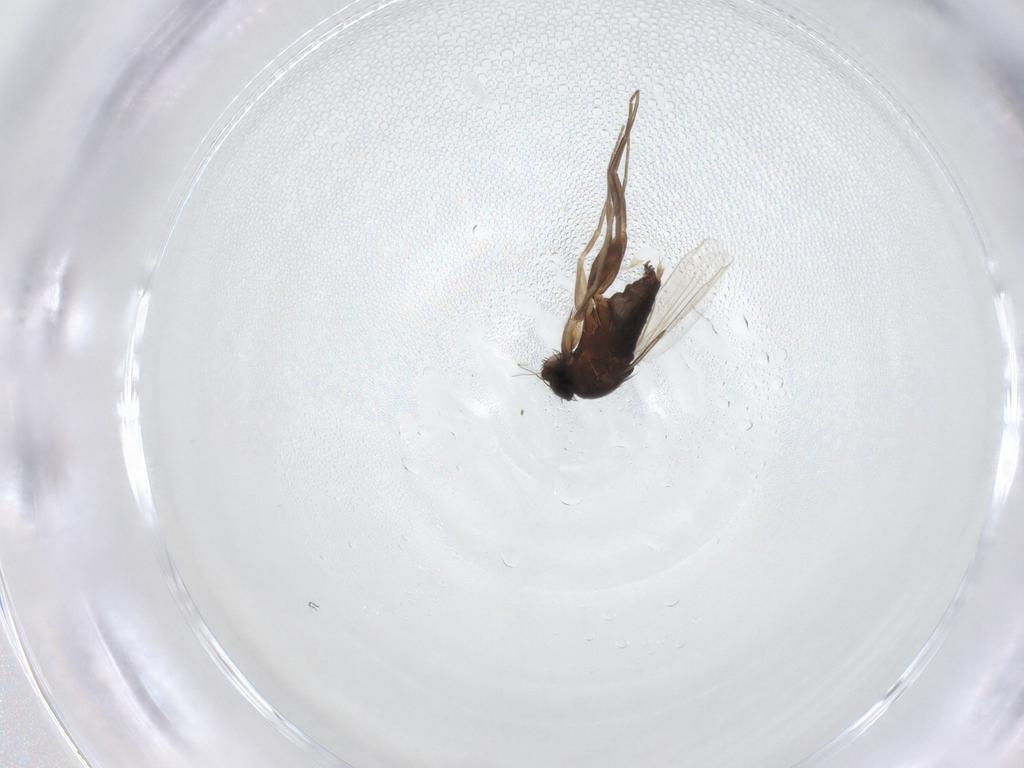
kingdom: Animalia
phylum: Arthropoda
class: Insecta
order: Diptera
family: Phoridae
